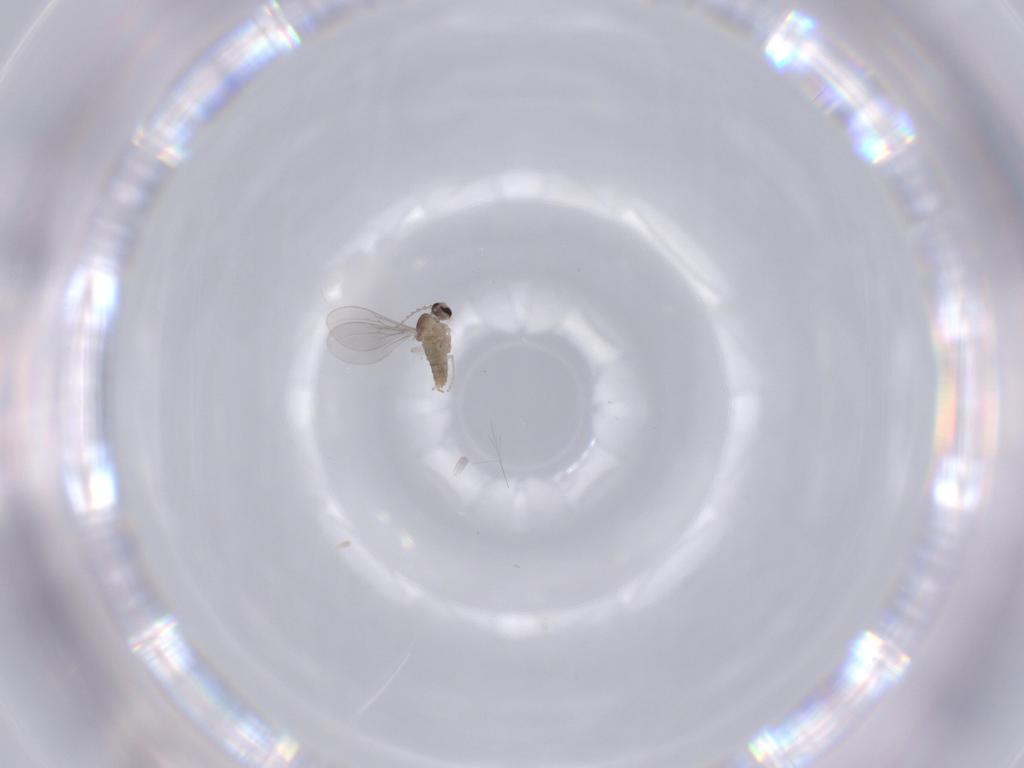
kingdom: Animalia
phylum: Arthropoda
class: Insecta
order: Diptera
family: Cecidomyiidae
